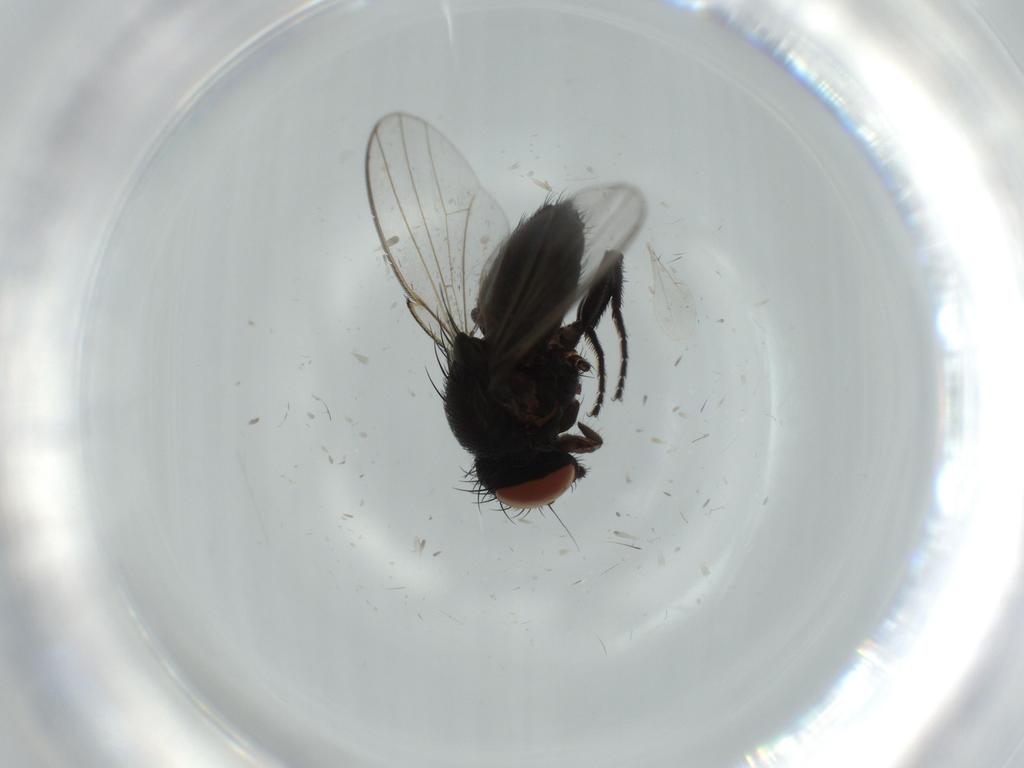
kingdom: Animalia
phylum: Arthropoda
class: Insecta
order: Diptera
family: Milichiidae
